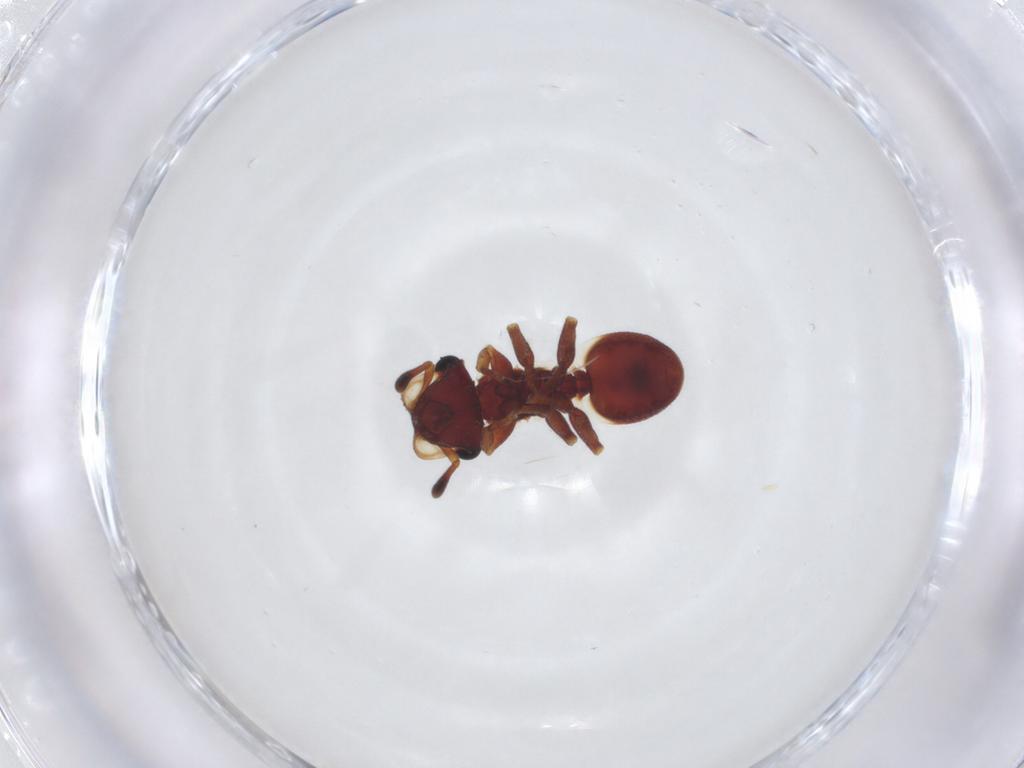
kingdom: Animalia
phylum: Arthropoda
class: Insecta
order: Hymenoptera
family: Formicidae
